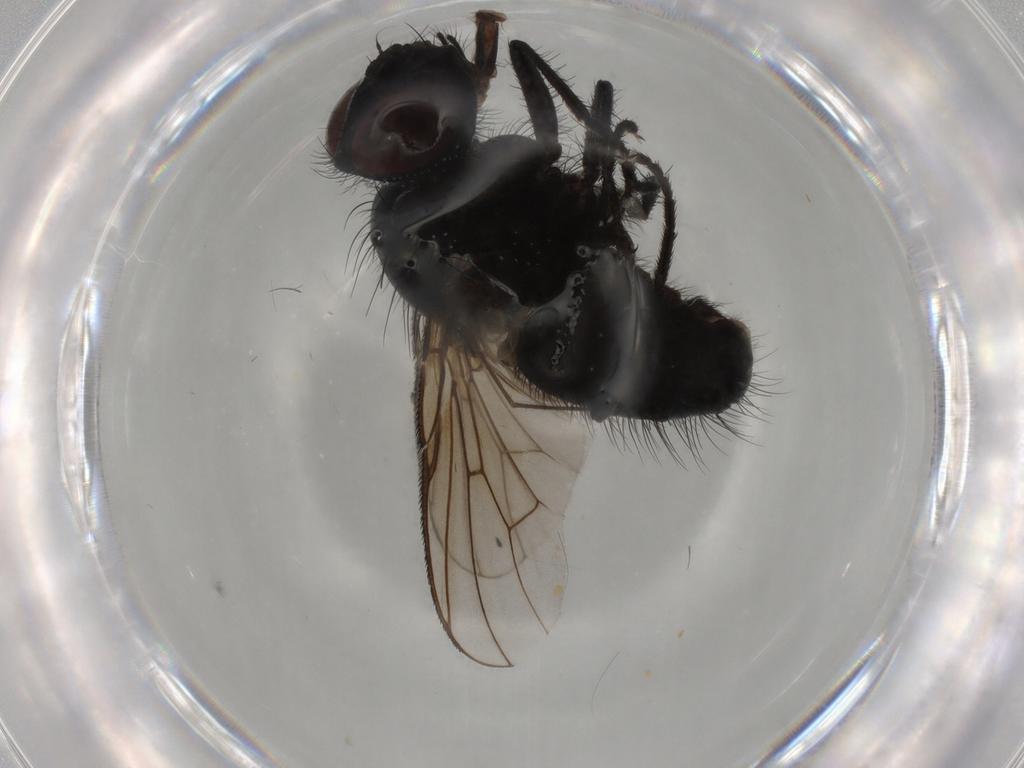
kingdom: Animalia
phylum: Arthropoda
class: Insecta
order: Diptera
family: Muscidae
